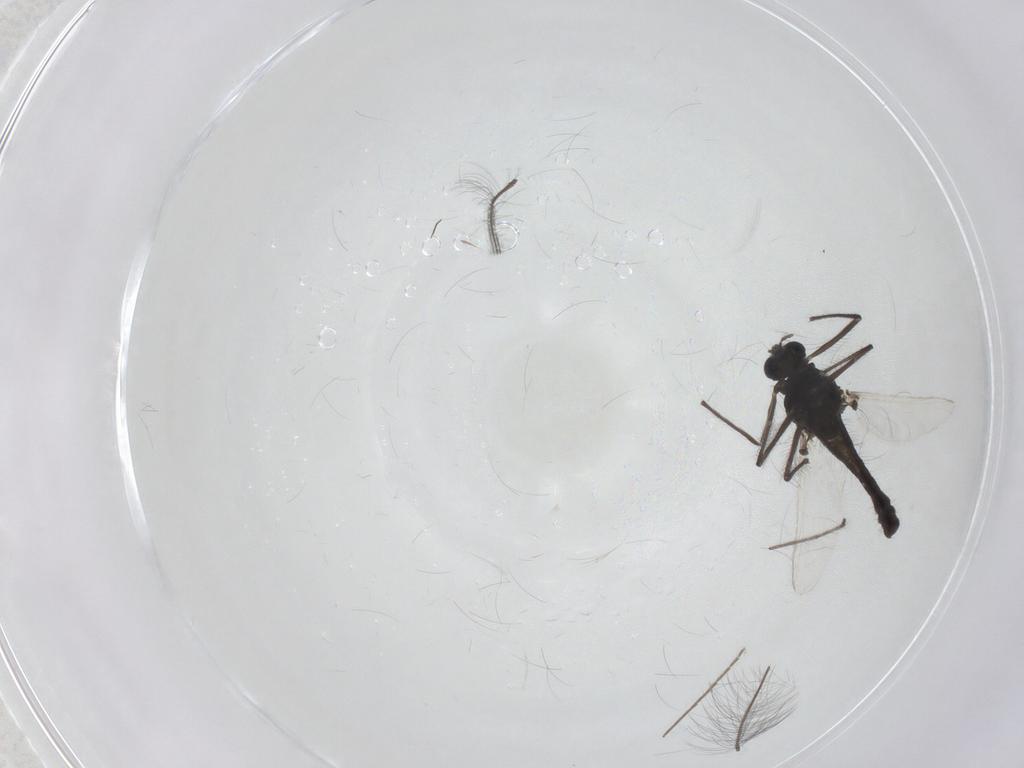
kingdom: Animalia
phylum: Arthropoda
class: Insecta
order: Diptera
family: Chironomidae
